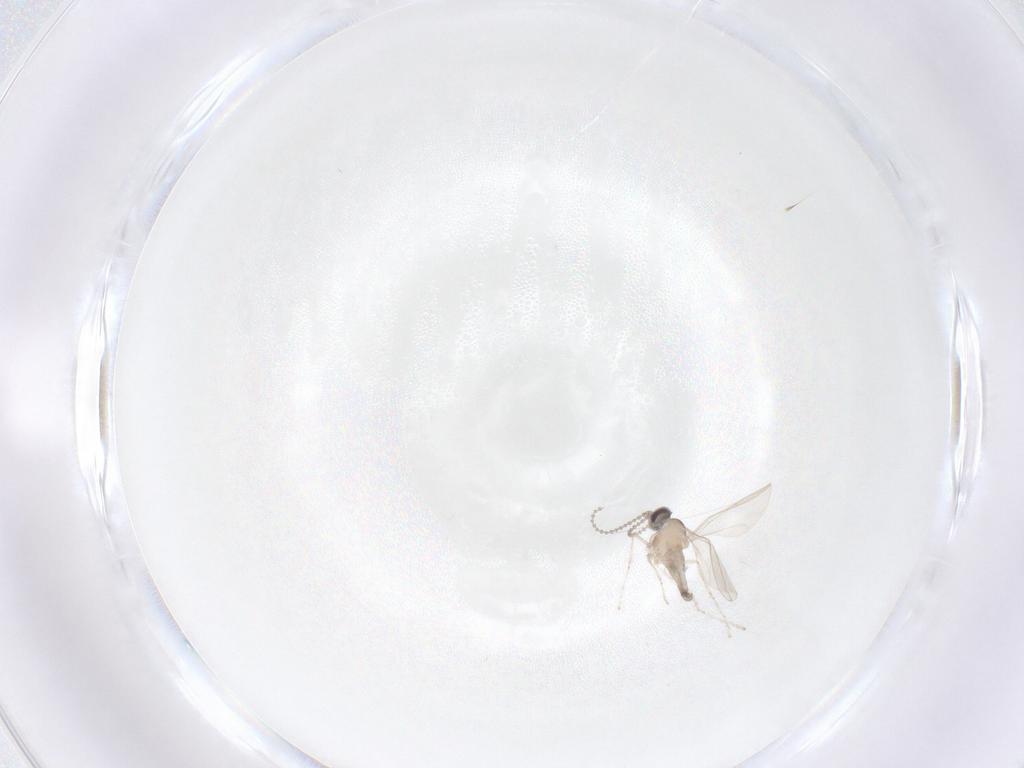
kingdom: Animalia
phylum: Arthropoda
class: Insecta
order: Diptera
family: Cecidomyiidae
